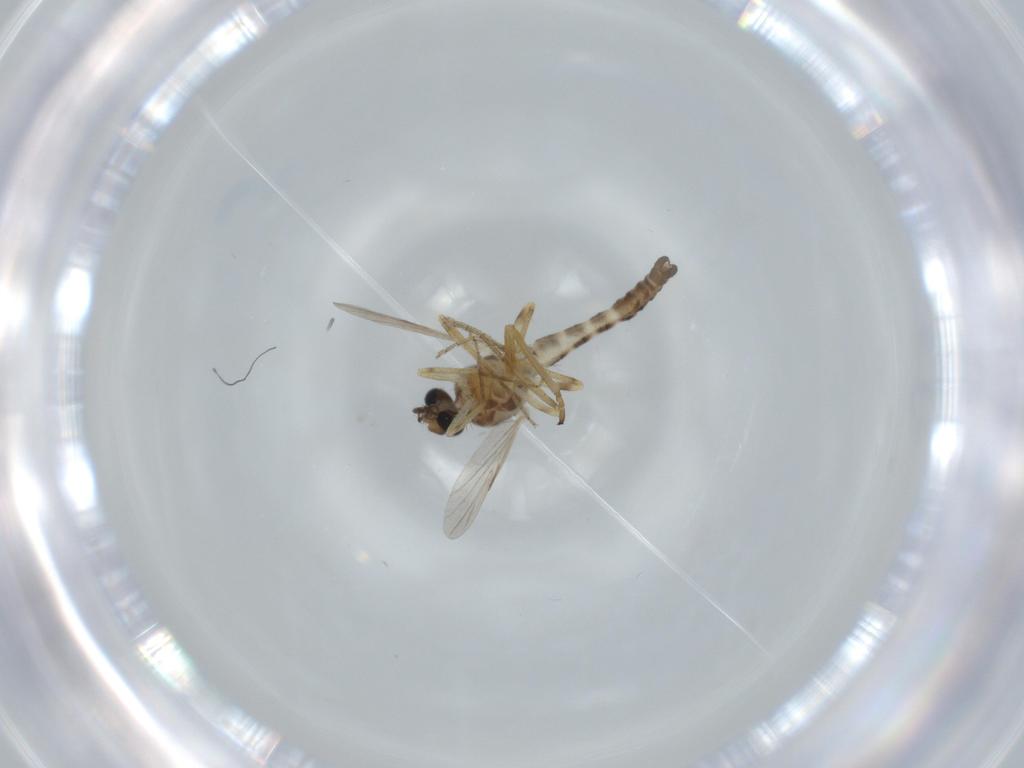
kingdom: Animalia
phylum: Arthropoda
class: Insecta
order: Diptera
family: Ceratopogonidae
